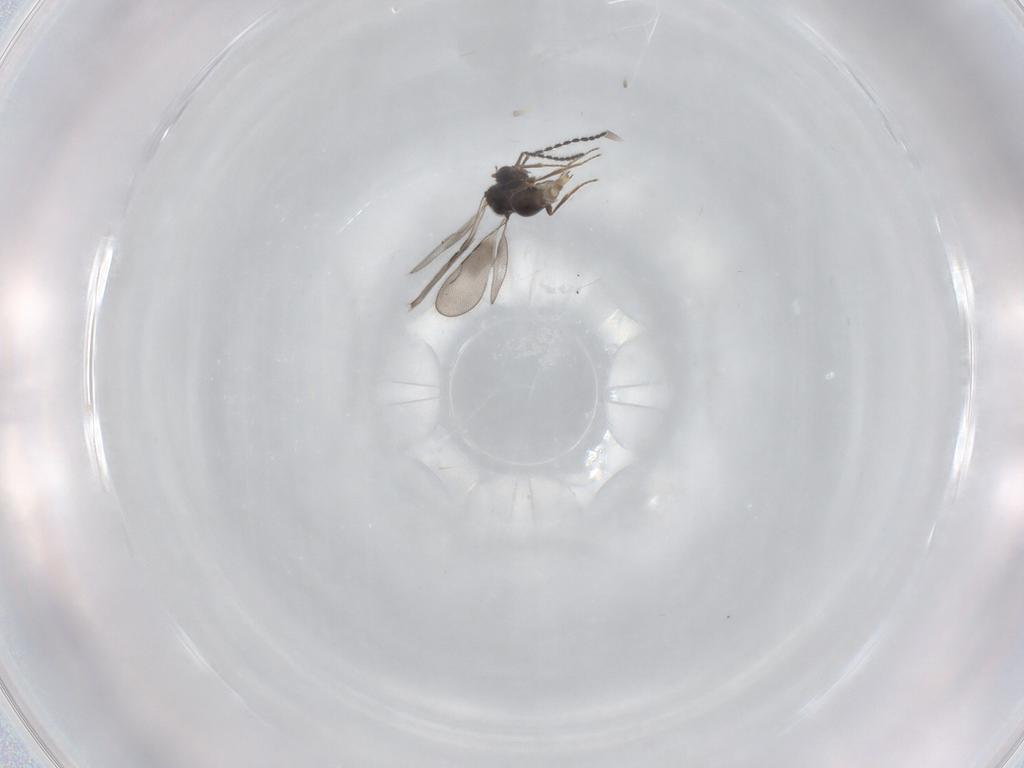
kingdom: Animalia
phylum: Arthropoda
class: Insecta
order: Hymenoptera
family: Ceraphronidae
